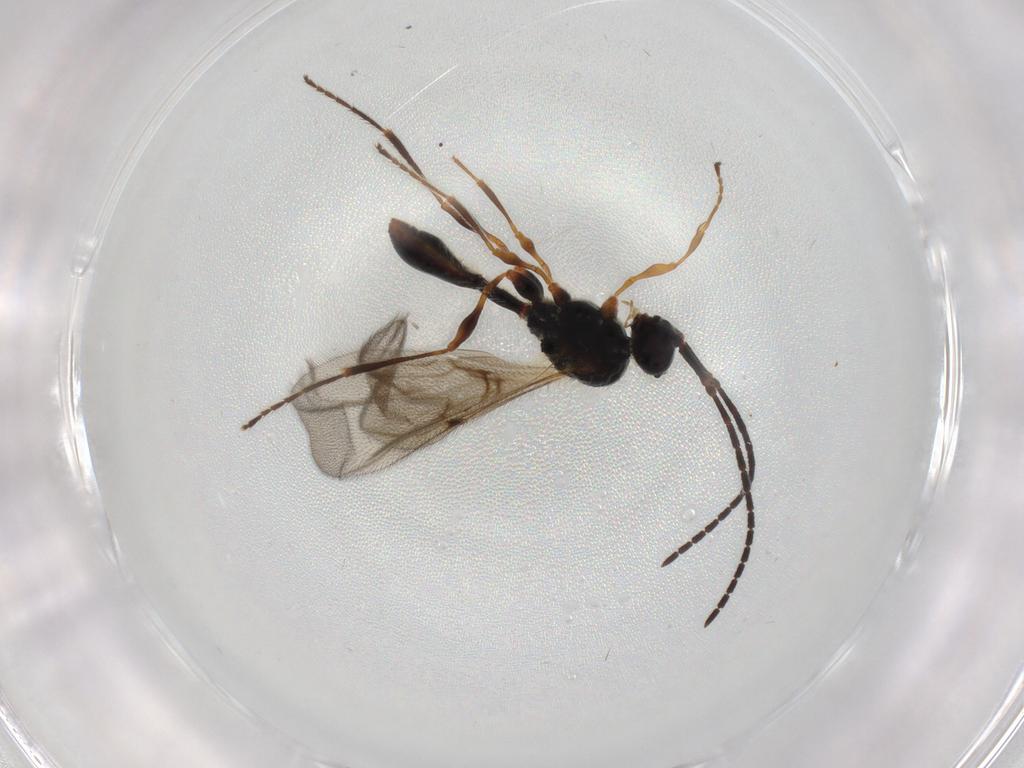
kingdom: Animalia
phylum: Arthropoda
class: Insecta
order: Hymenoptera
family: Diapriidae
